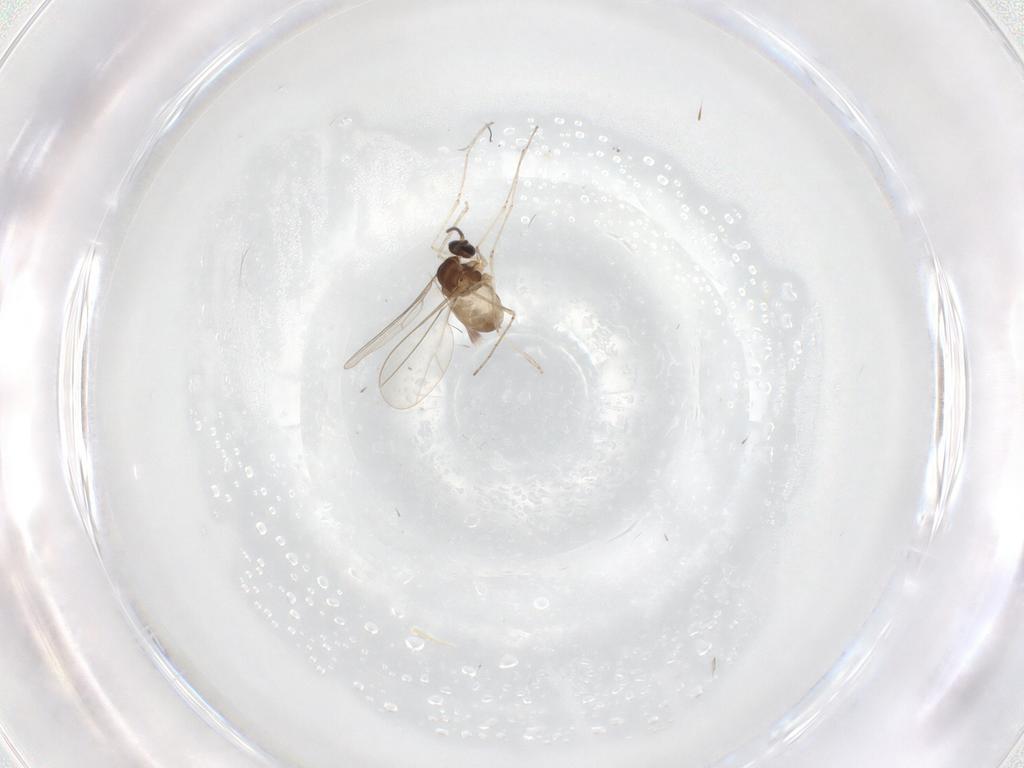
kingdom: Animalia
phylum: Arthropoda
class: Insecta
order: Diptera
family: Cecidomyiidae
